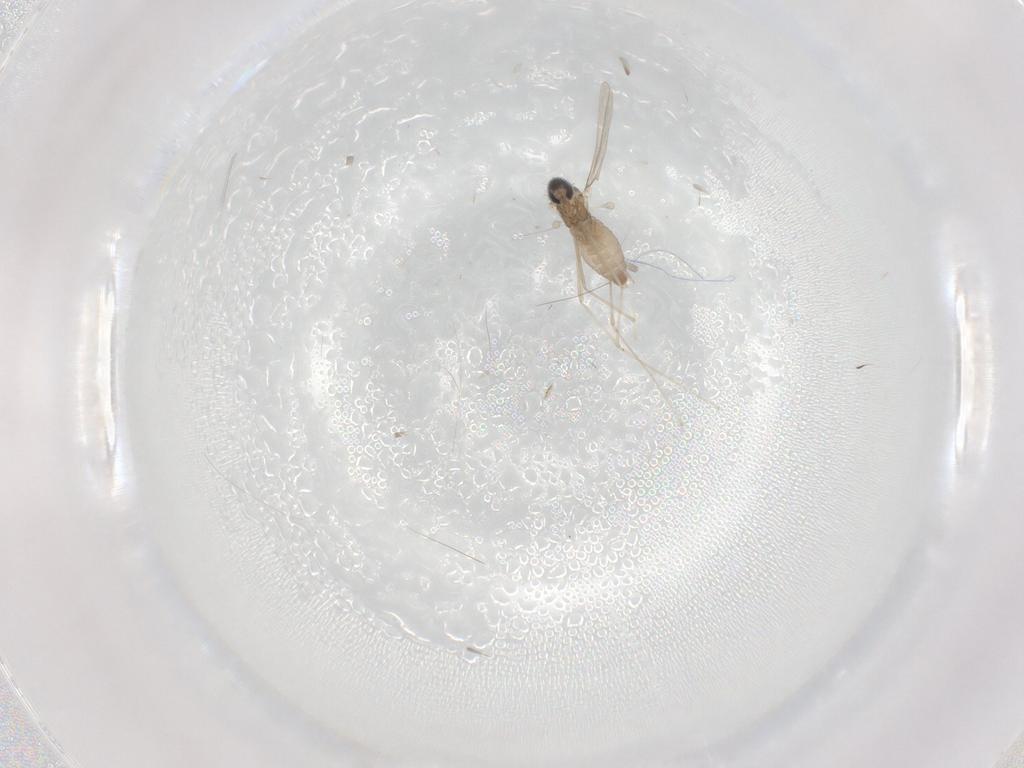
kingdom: Animalia
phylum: Arthropoda
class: Insecta
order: Diptera
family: Cecidomyiidae
